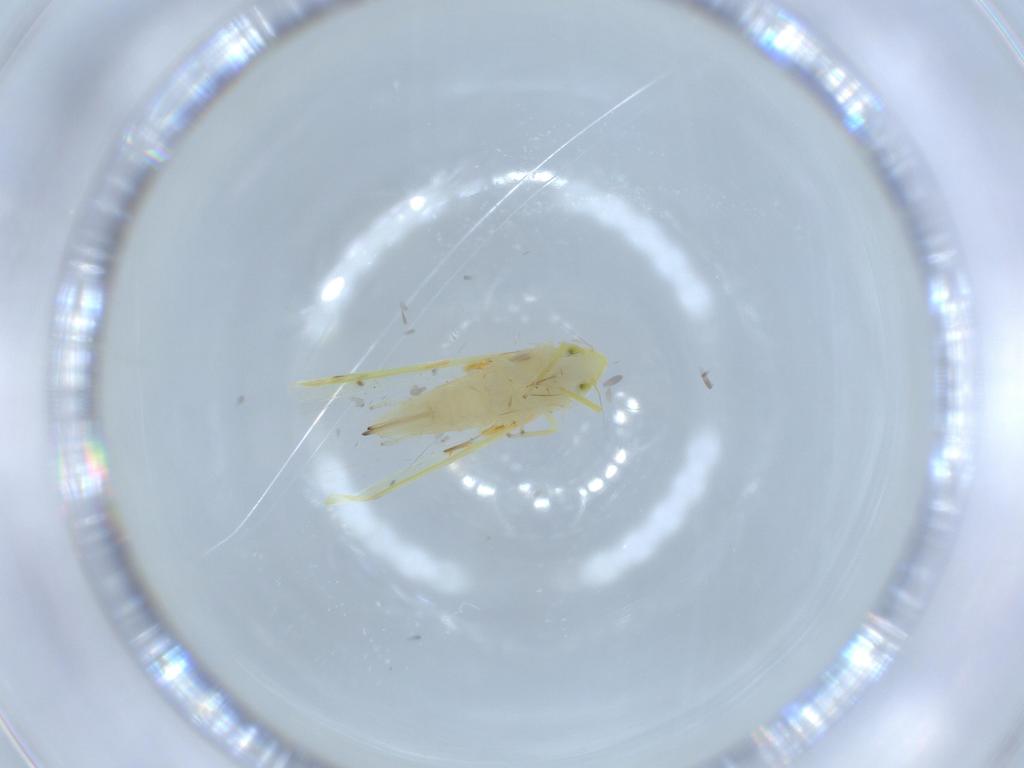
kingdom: Animalia
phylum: Arthropoda
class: Insecta
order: Hemiptera
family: Cicadellidae
